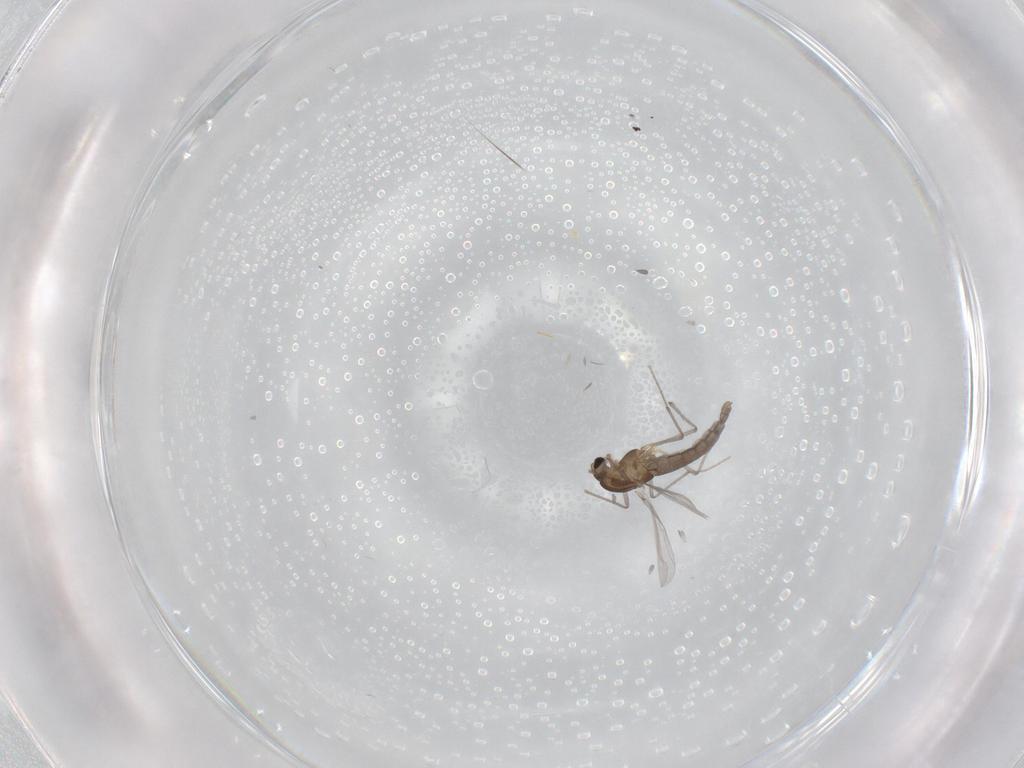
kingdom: Animalia
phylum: Arthropoda
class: Insecta
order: Diptera
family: Chironomidae
